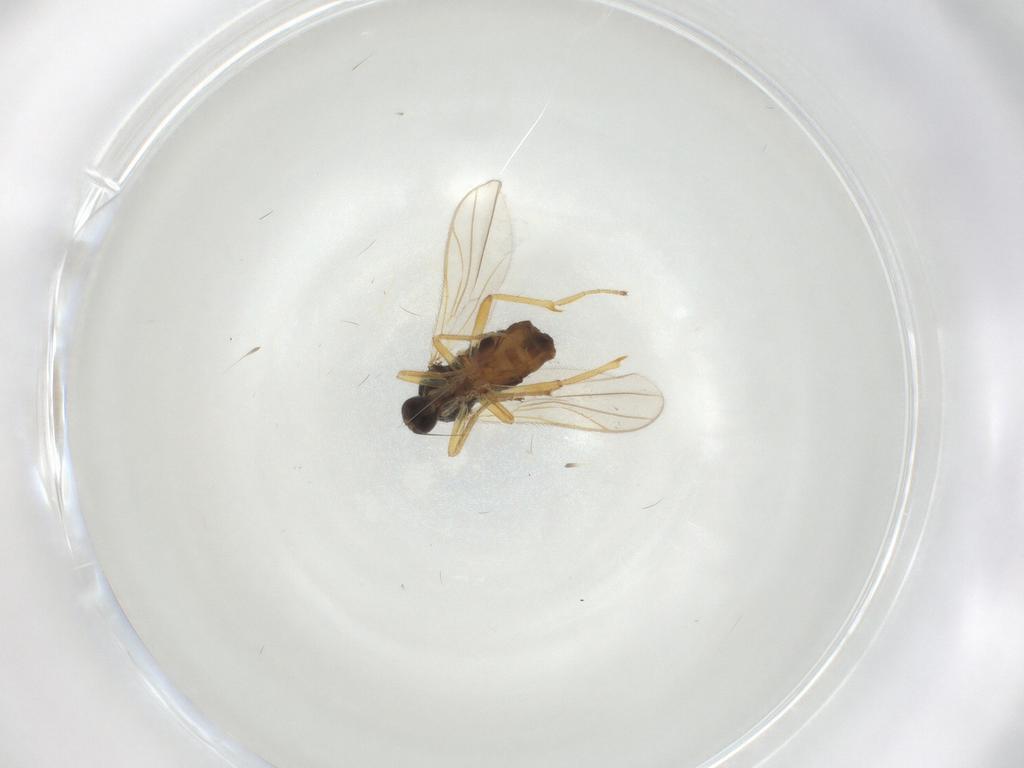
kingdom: Animalia
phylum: Arthropoda
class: Insecta
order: Diptera
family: Hybotidae
